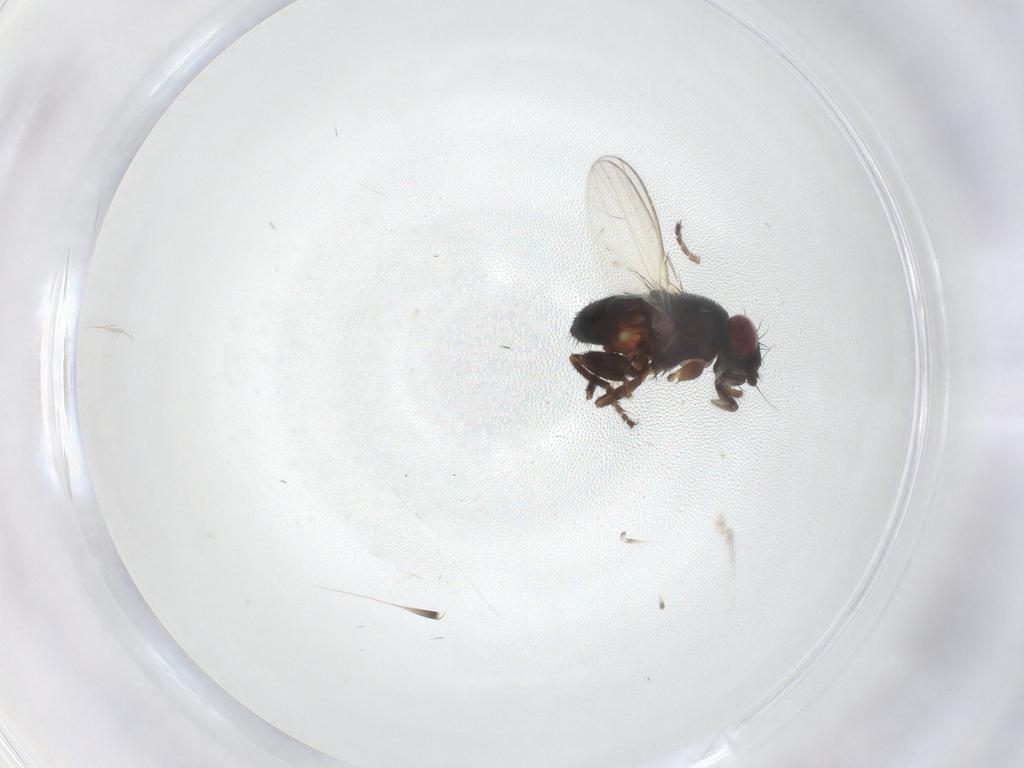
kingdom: Animalia
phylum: Arthropoda
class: Insecta
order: Diptera
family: Milichiidae
